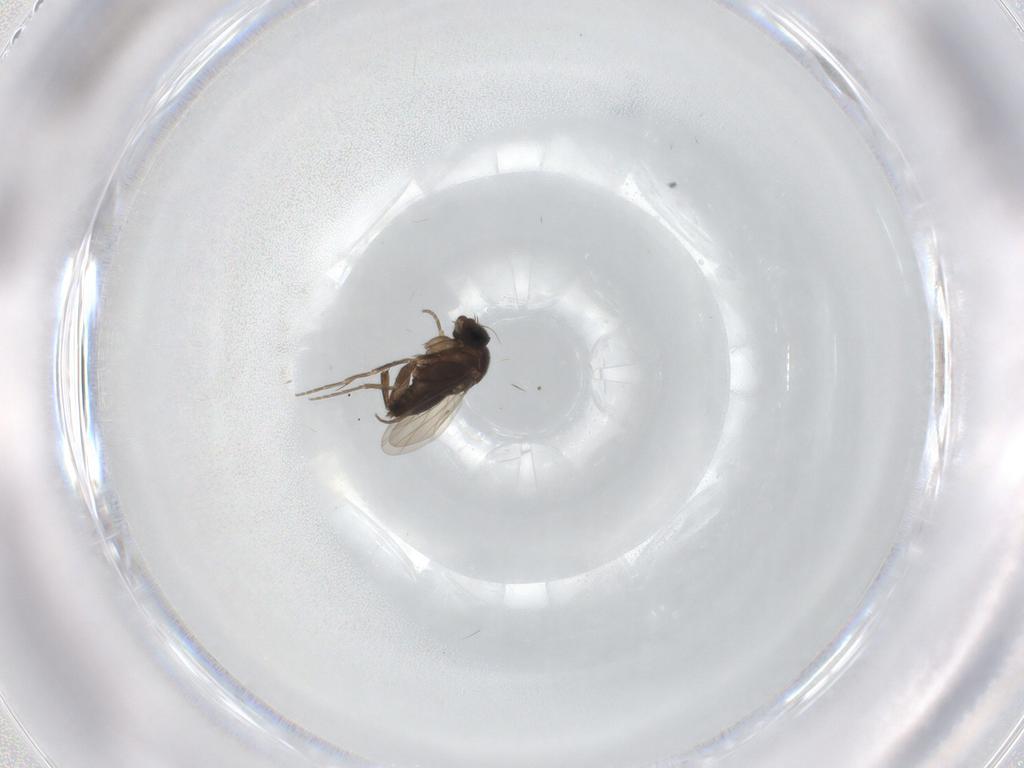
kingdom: Animalia
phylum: Arthropoda
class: Insecta
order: Diptera
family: Phoridae
